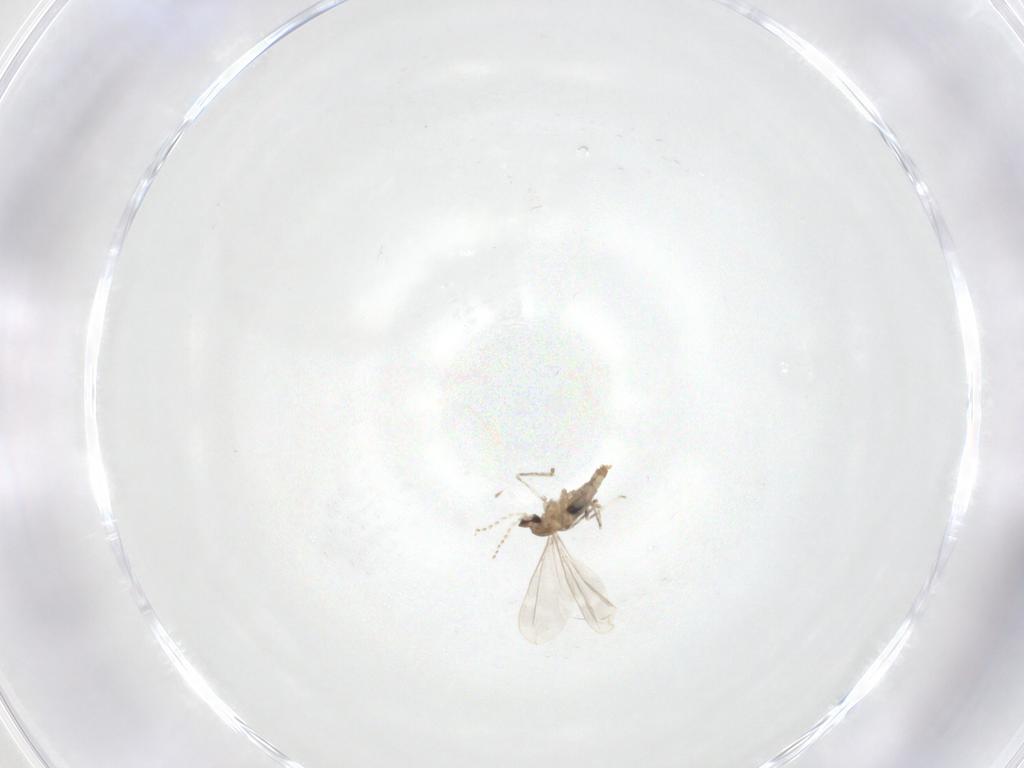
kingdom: Animalia
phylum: Arthropoda
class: Insecta
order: Diptera
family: Cecidomyiidae
